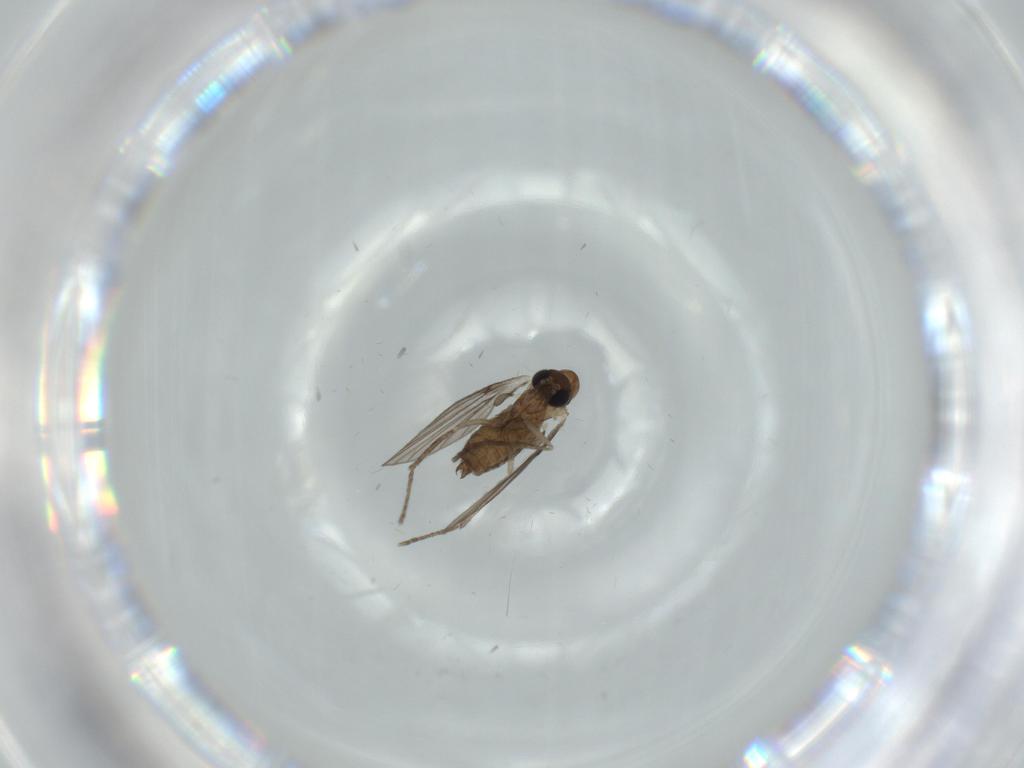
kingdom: Animalia
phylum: Arthropoda
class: Insecta
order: Diptera
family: Psychodidae
